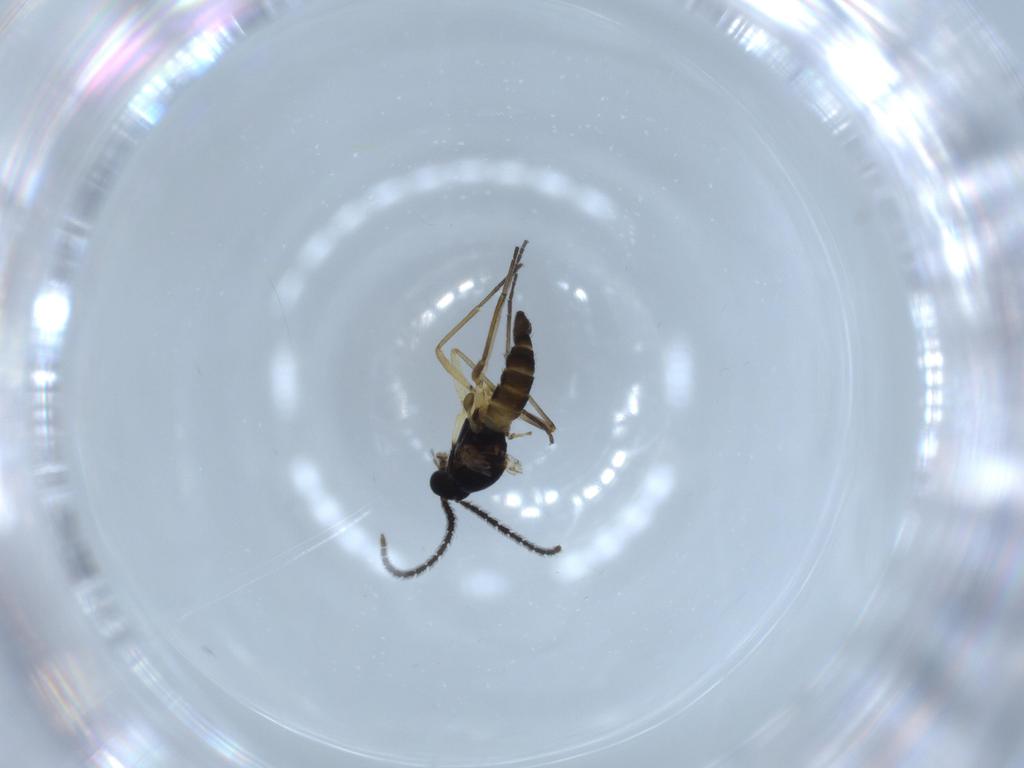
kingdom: Animalia
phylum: Arthropoda
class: Insecta
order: Diptera
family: Sciaridae
